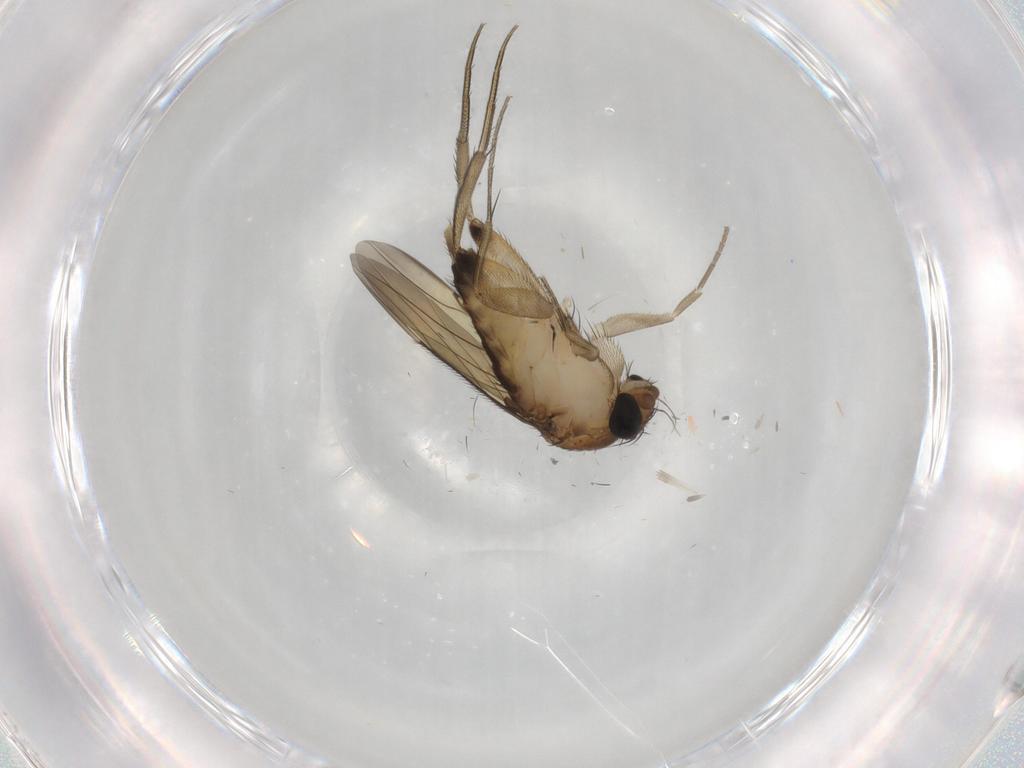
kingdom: Animalia
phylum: Arthropoda
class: Insecta
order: Diptera
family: Phoridae
